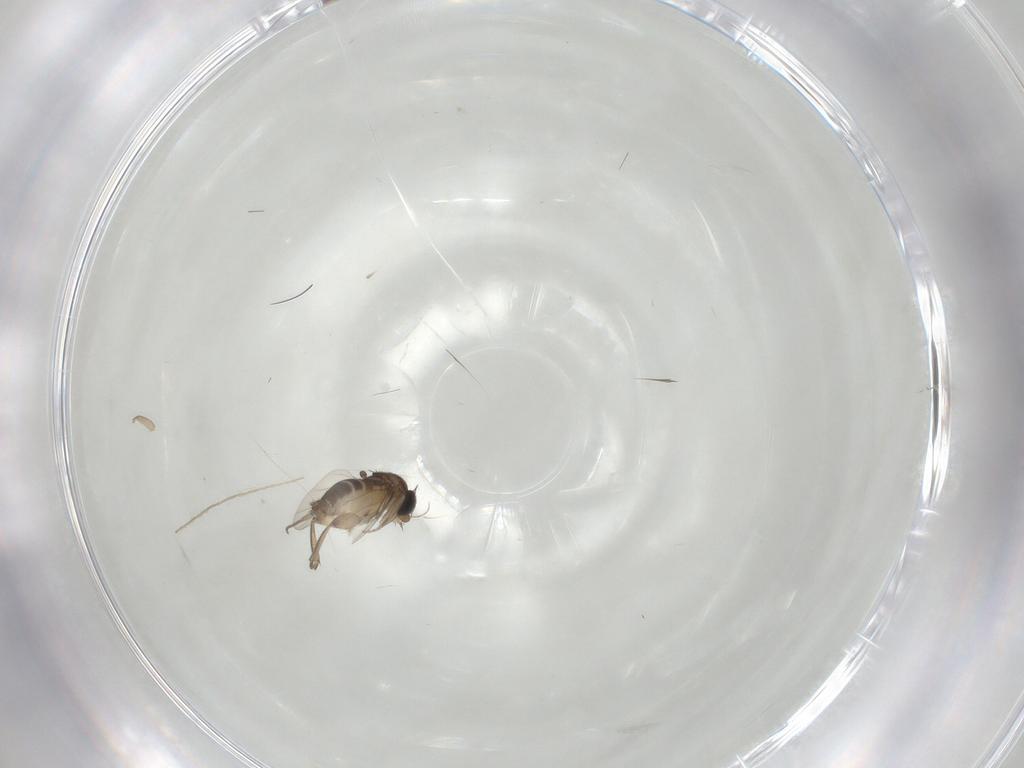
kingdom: Animalia
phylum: Arthropoda
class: Insecta
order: Diptera
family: Phoridae
